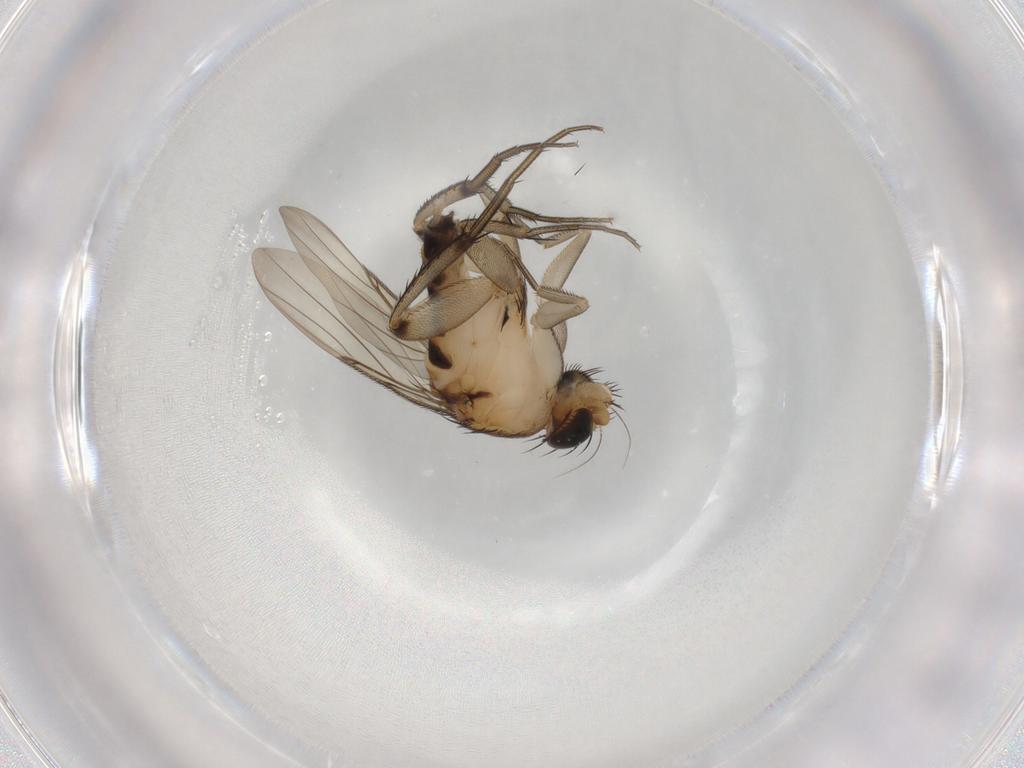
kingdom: Animalia
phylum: Arthropoda
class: Insecta
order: Diptera
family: Phoridae
